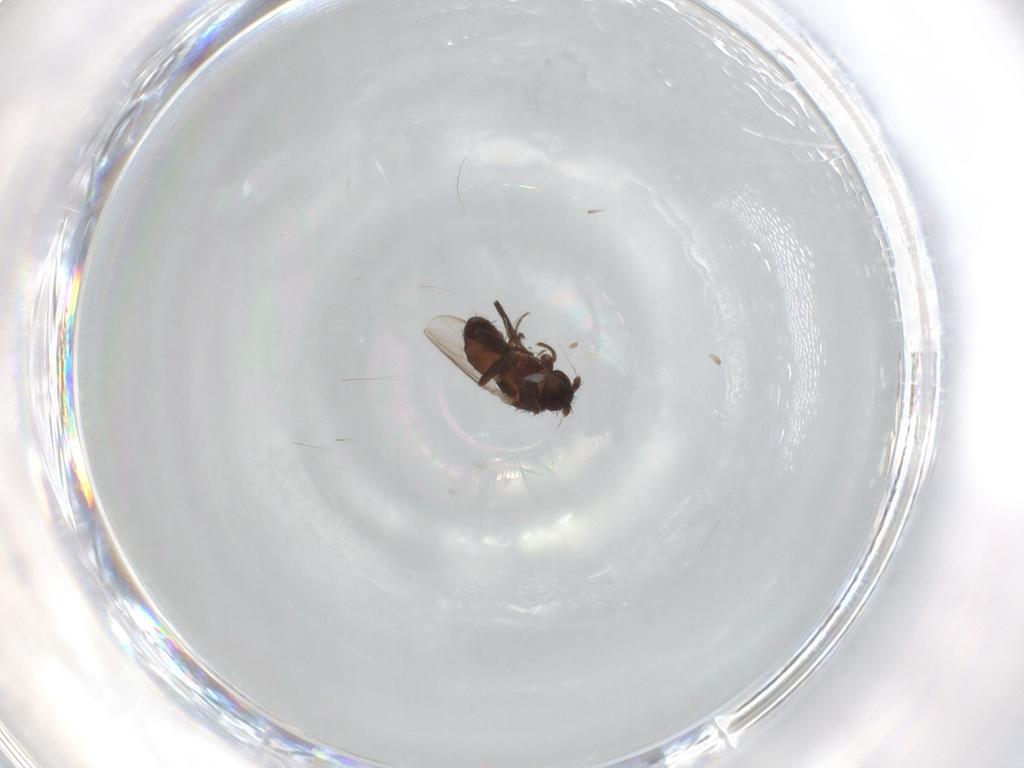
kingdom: Animalia
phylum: Arthropoda
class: Insecta
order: Diptera
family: Sphaeroceridae
